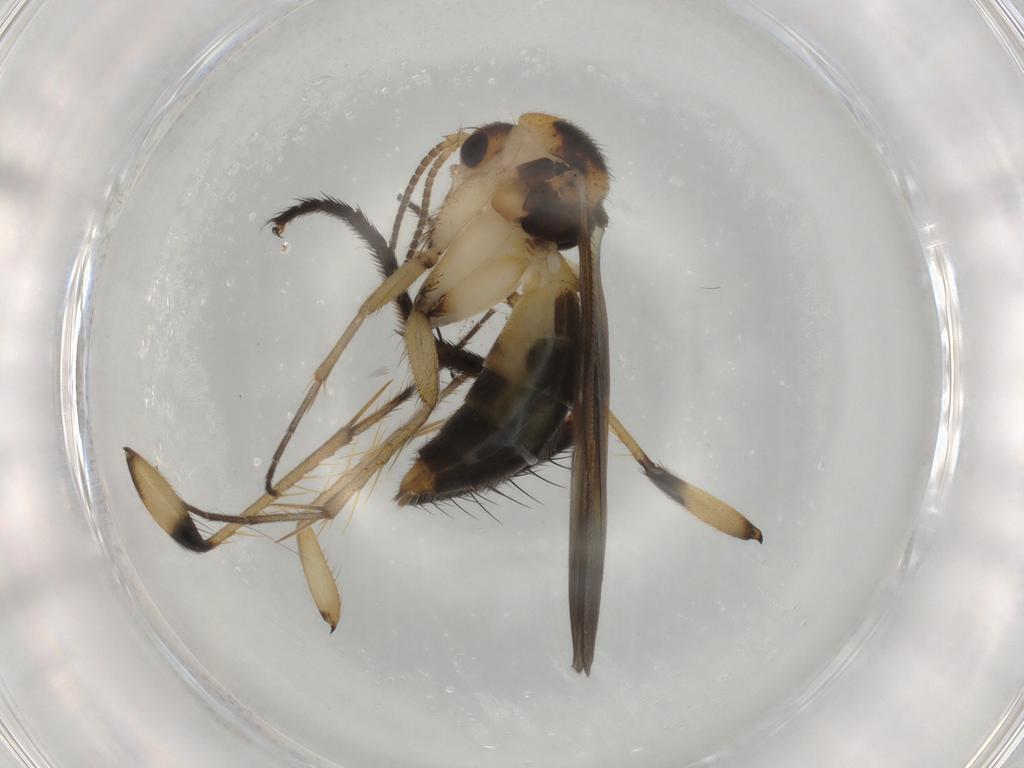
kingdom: Animalia
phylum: Arthropoda
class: Insecta
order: Diptera
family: Mycetophilidae
